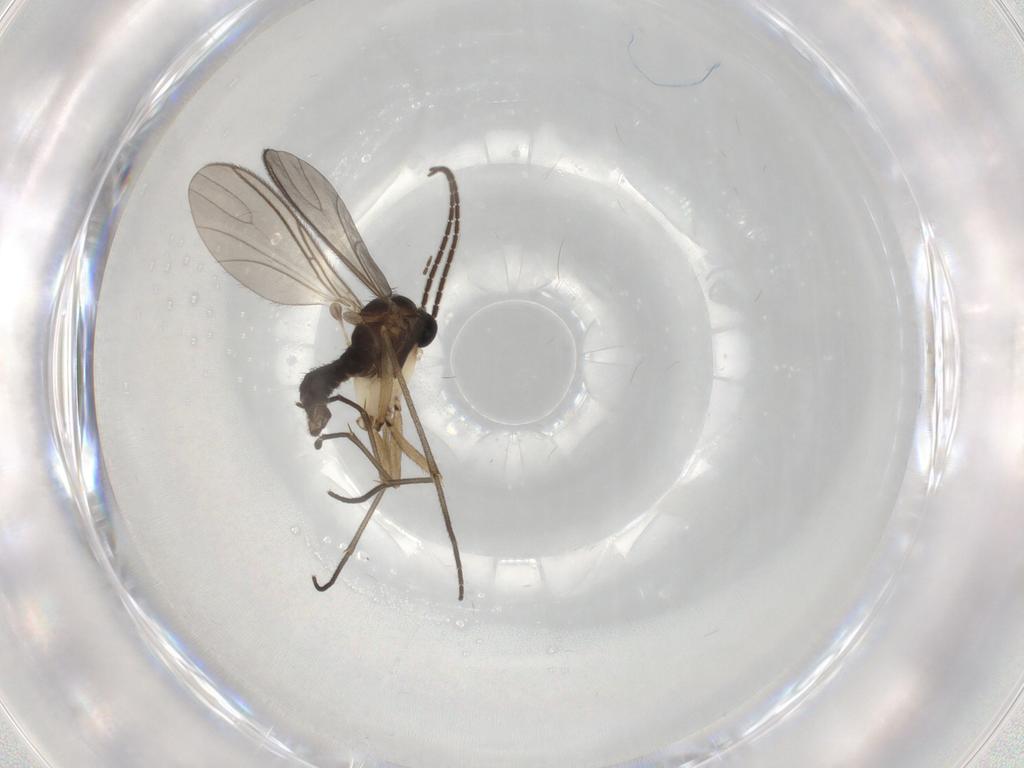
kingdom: Animalia
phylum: Arthropoda
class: Insecta
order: Diptera
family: Sciaridae
